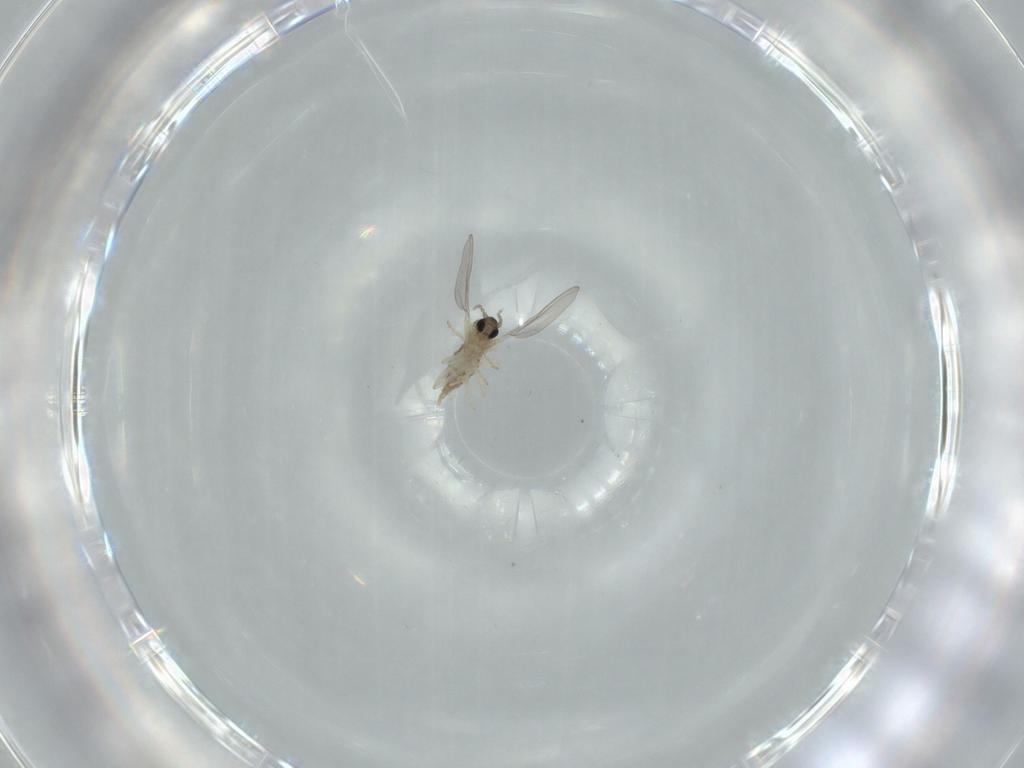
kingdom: Animalia
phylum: Arthropoda
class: Insecta
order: Diptera
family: Cecidomyiidae
